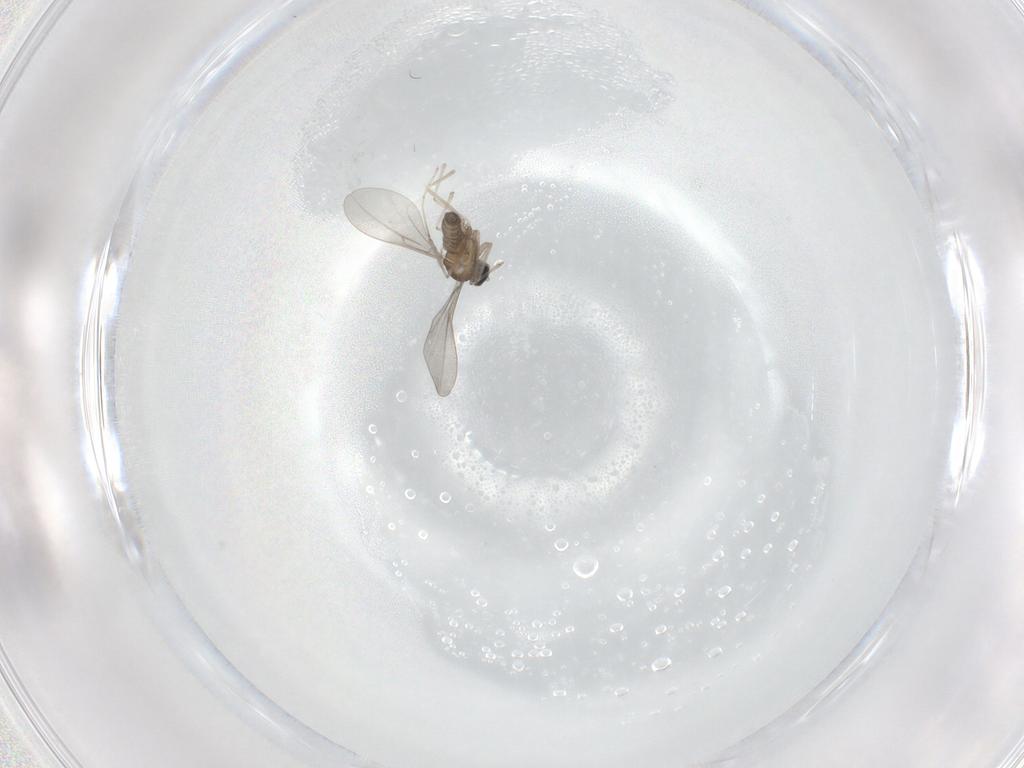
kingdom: Animalia
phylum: Arthropoda
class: Insecta
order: Diptera
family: Cecidomyiidae
